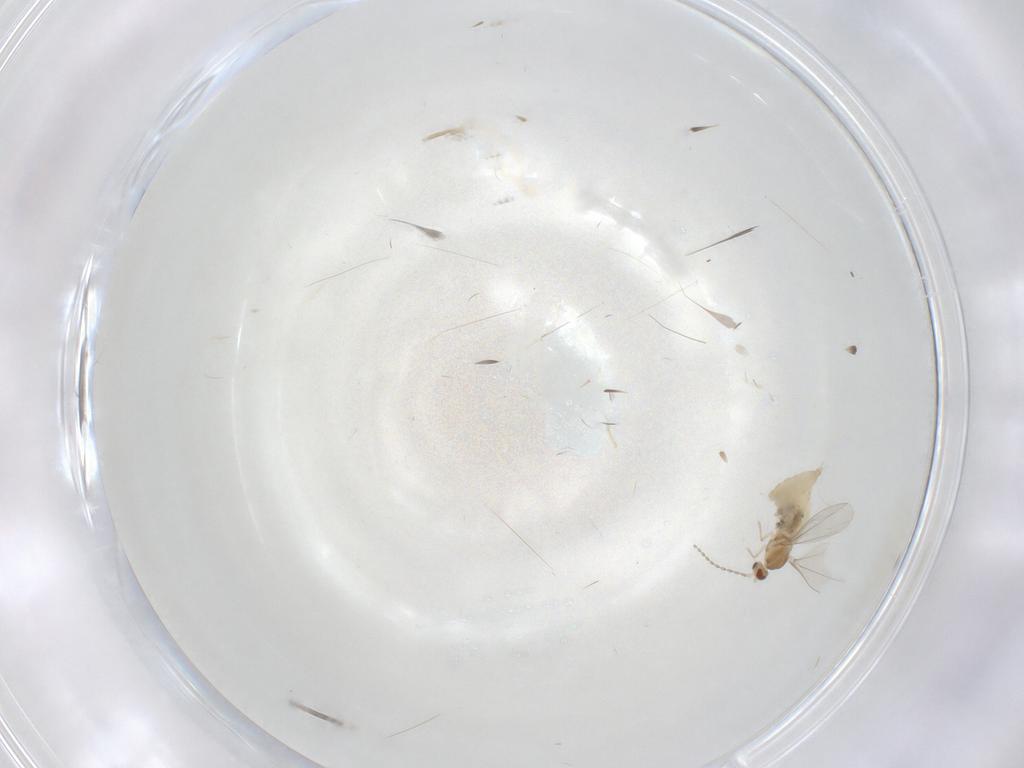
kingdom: Animalia
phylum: Arthropoda
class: Insecta
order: Diptera
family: Cecidomyiidae
